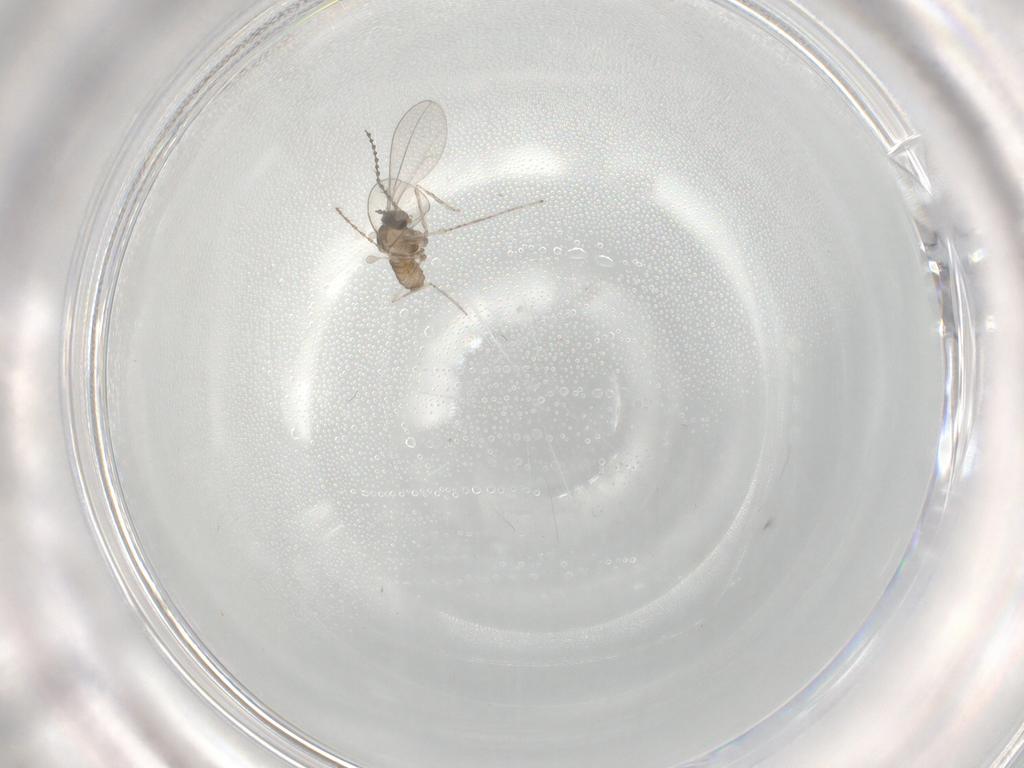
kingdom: Animalia
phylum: Arthropoda
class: Insecta
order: Diptera
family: Cecidomyiidae
